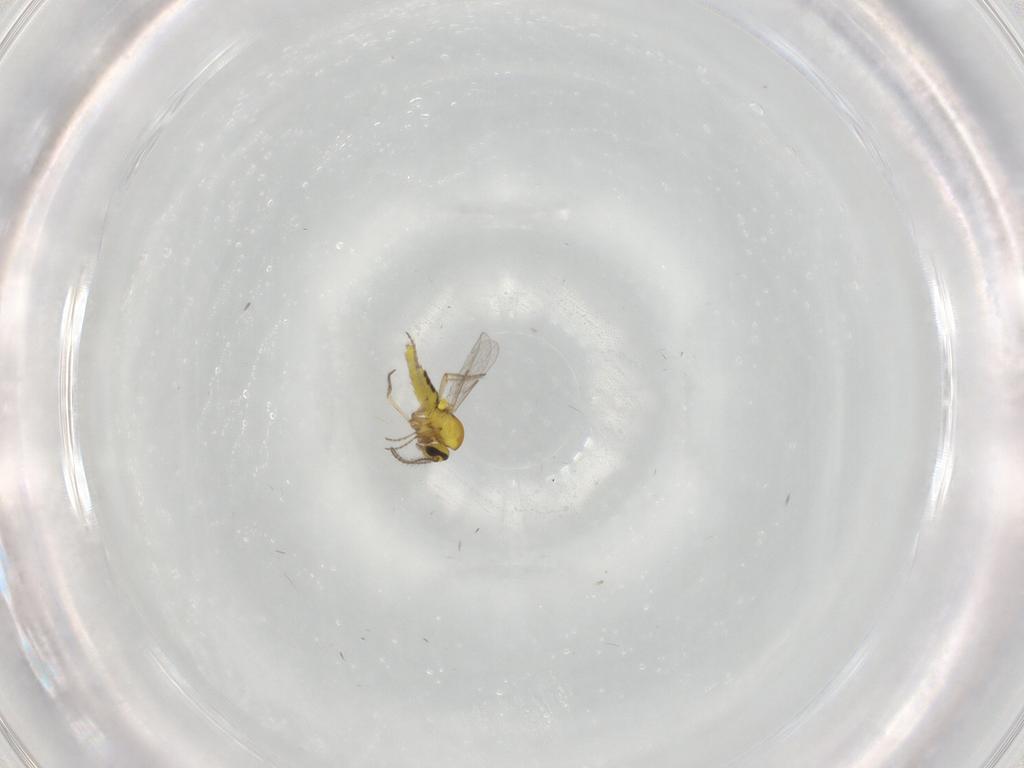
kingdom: Animalia
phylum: Arthropoda
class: Insecta
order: Diptera
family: Ceratopogonidae
